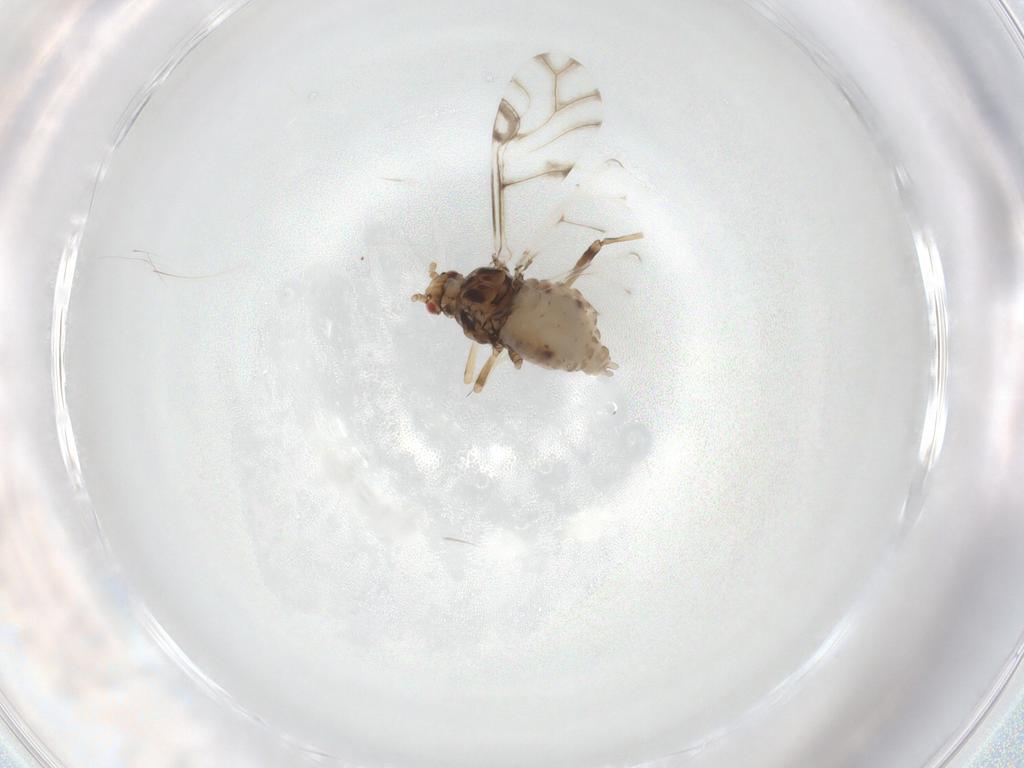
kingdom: Animalia
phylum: Arthropoda
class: Insecta
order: Hemiptera
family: Aphididae
